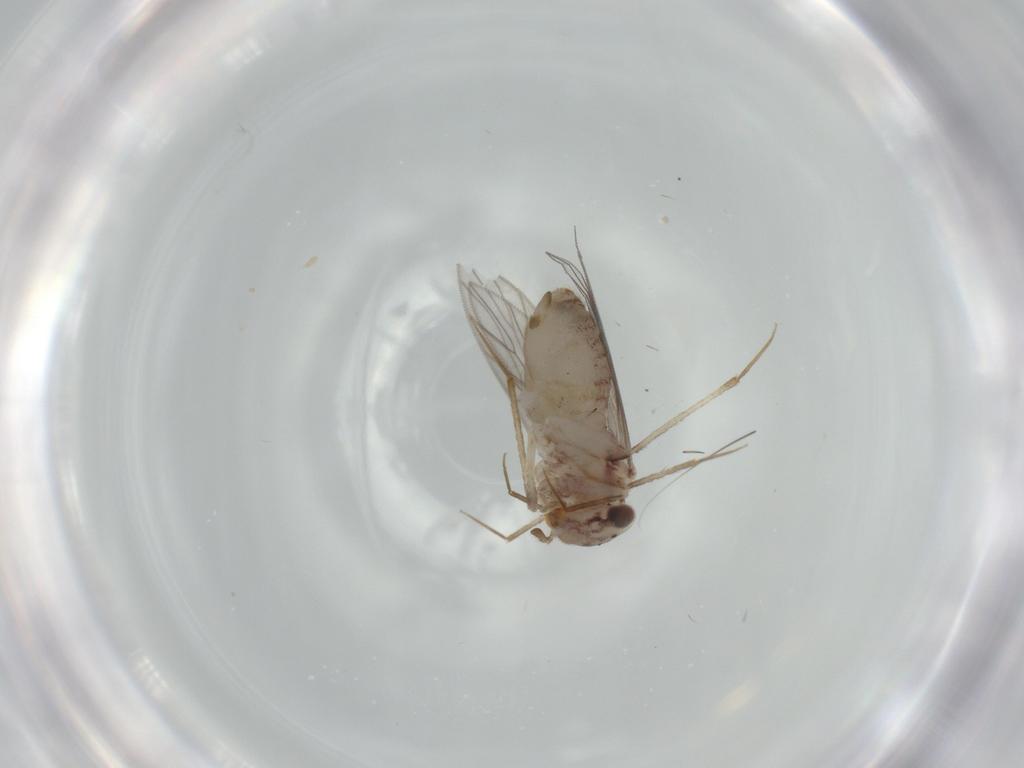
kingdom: Animalia
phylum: Arthropoda
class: Insecta
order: Psocodea
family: Lepidopsocidae
